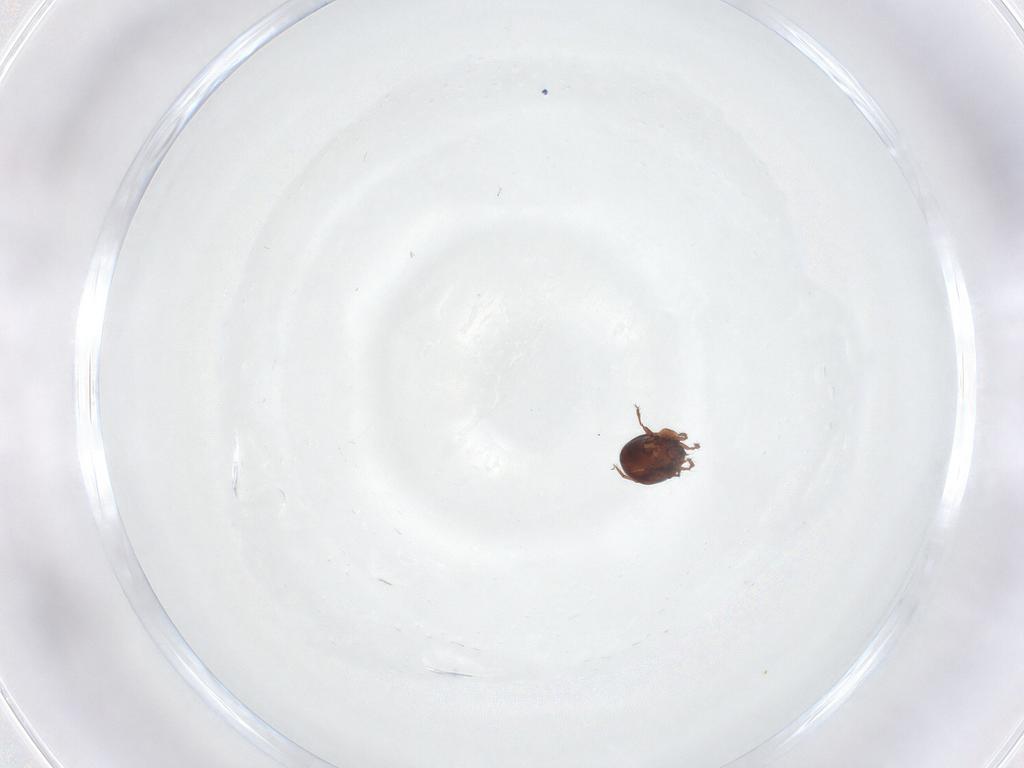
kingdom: Animalia
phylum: Arthropoda
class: Arachnida
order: Sarcoptiformes
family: Ceratozetidae
